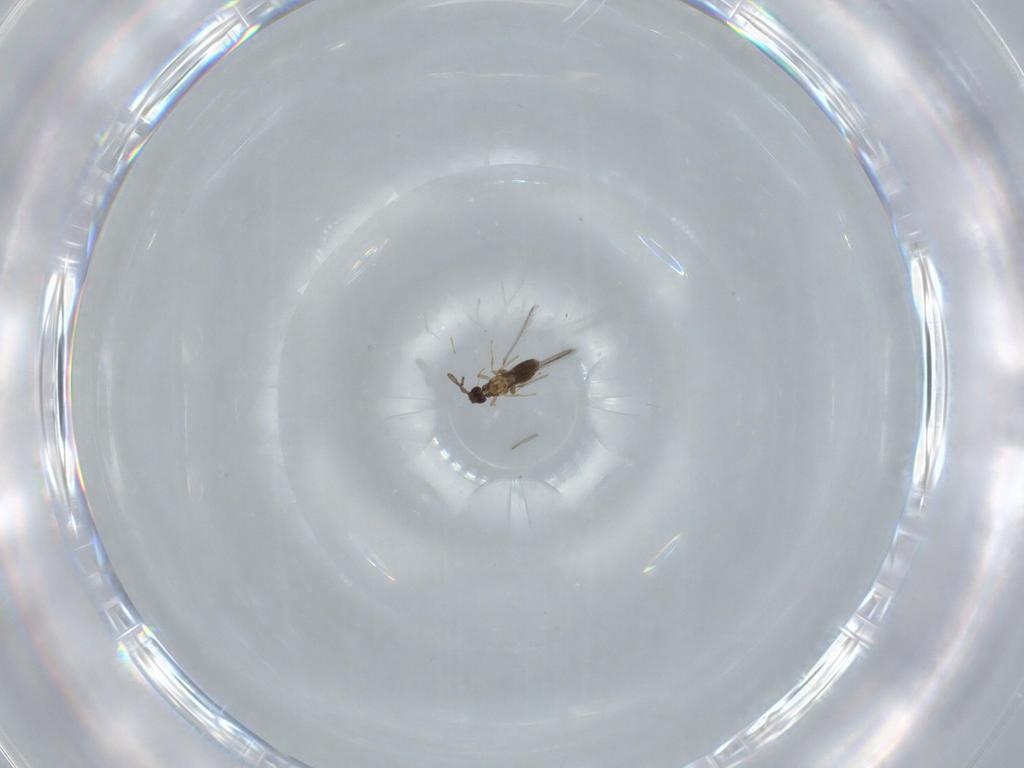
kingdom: Animalia
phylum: Arthropoda
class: Insecta
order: Hymenoptera
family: Mymaridae
